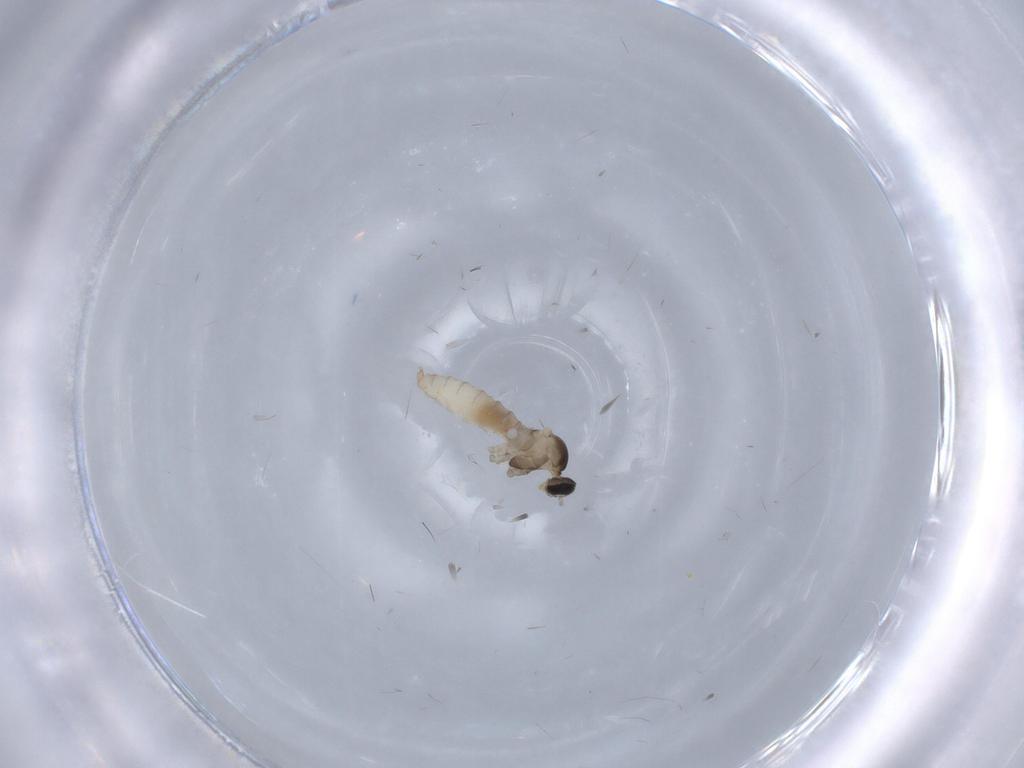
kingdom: Animalia
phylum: Arthropoda
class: Insecta
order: Diptera
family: Cecidomyiidae
